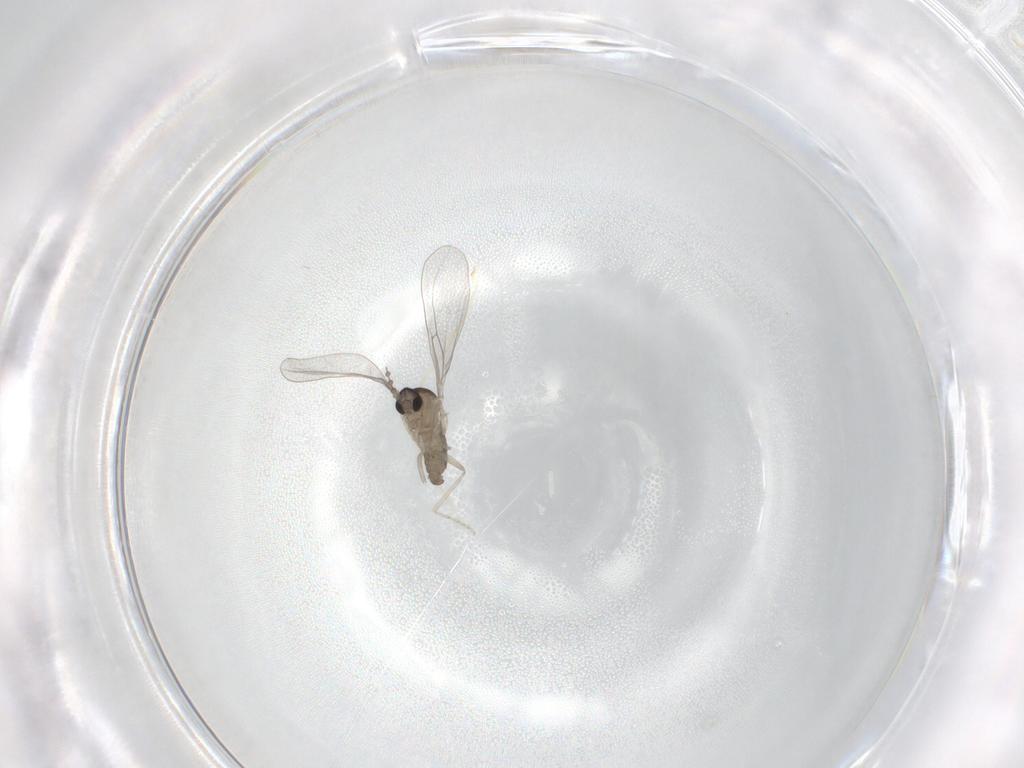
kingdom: Animalia
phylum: Arthropoda
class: Insecta
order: Diptera
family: Cecidomyiidae
